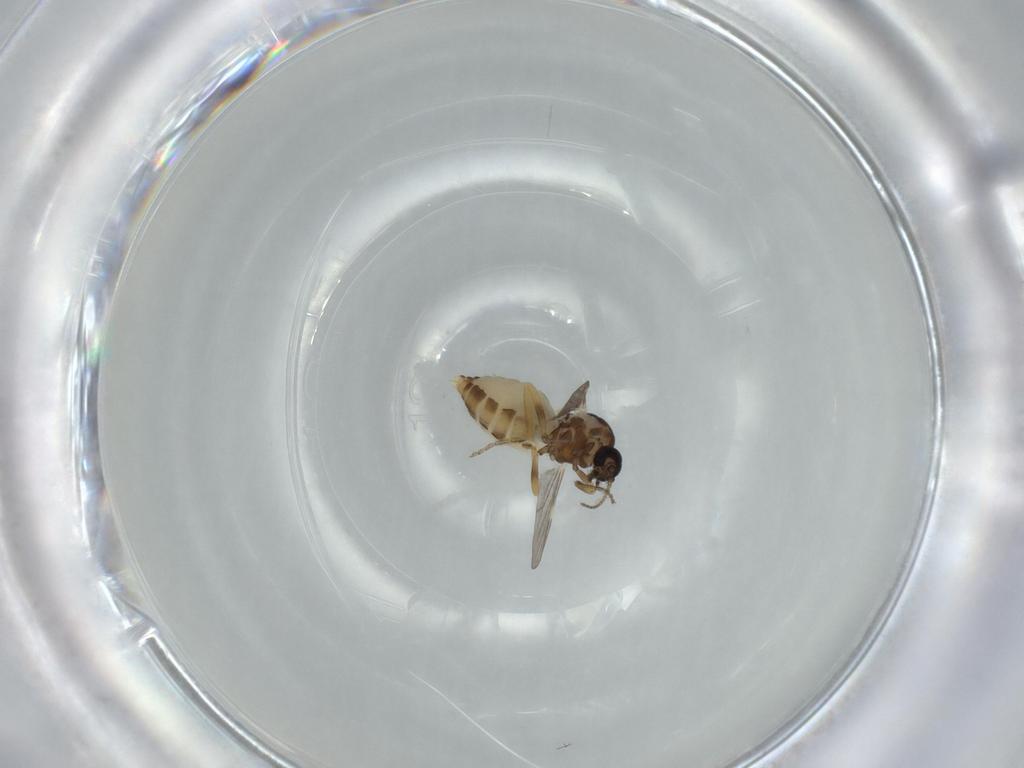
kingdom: Animalia
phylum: Arthropoda
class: Insecta
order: Diptera
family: Ceratopogonidae
